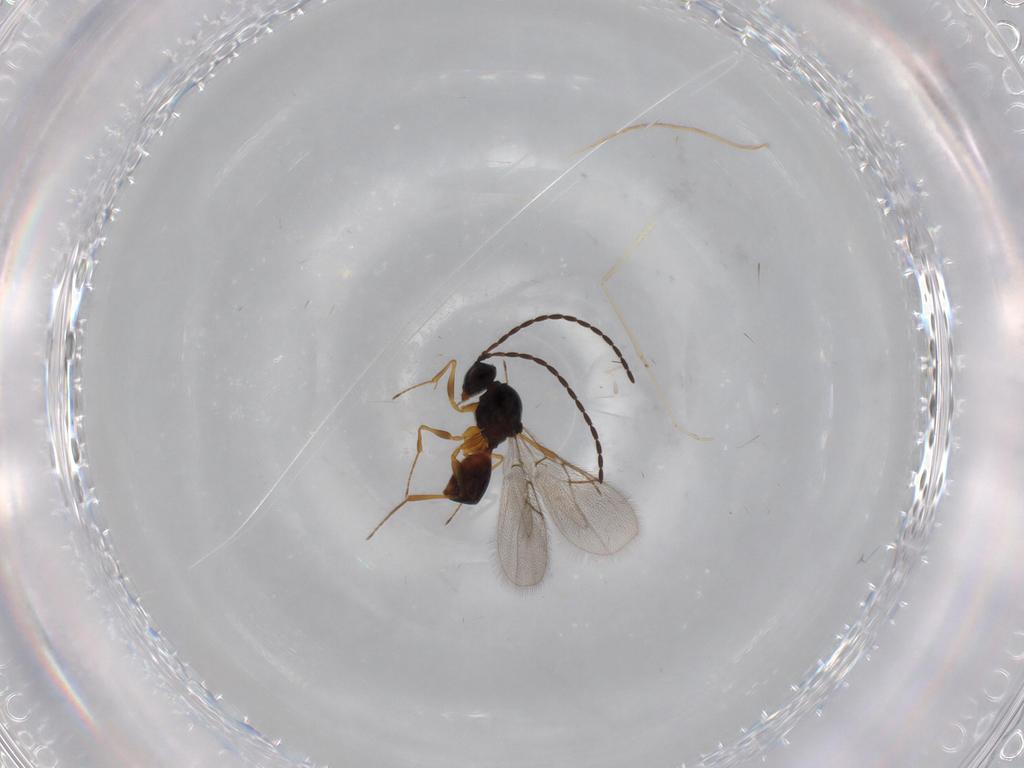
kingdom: Animalia
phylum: Arthropoda
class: Insecta
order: Hymenoptera
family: Figitidae
